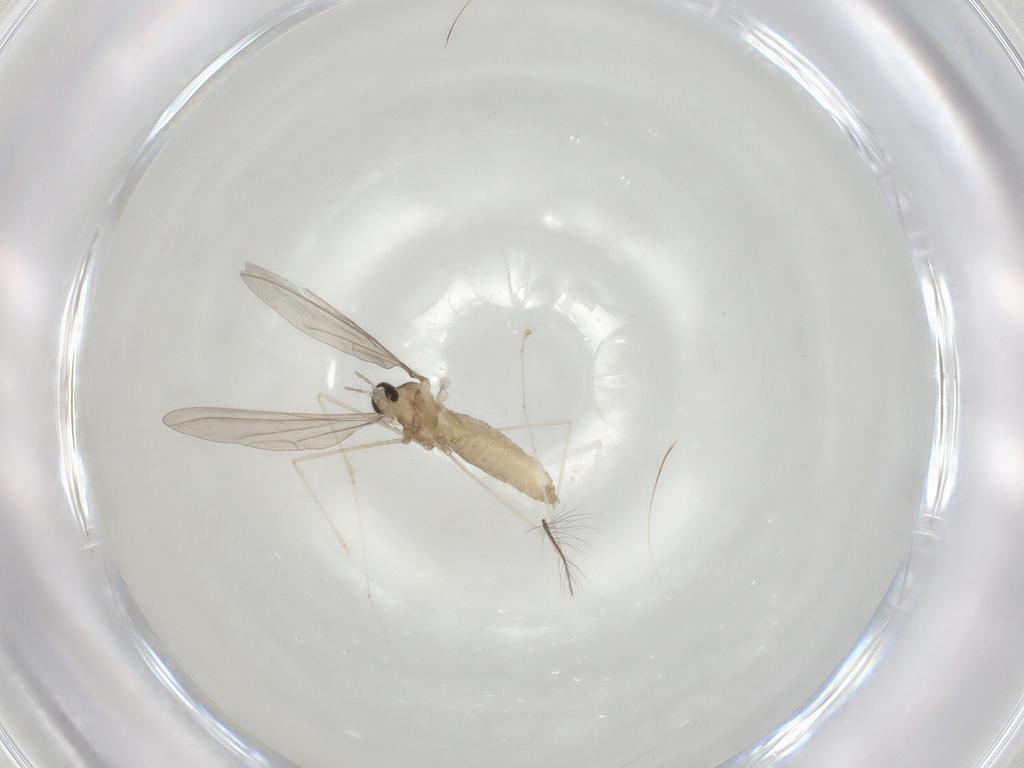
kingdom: Animalia
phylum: Arthropoda
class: Insecta
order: Diptera
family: Cecidomyiidae
